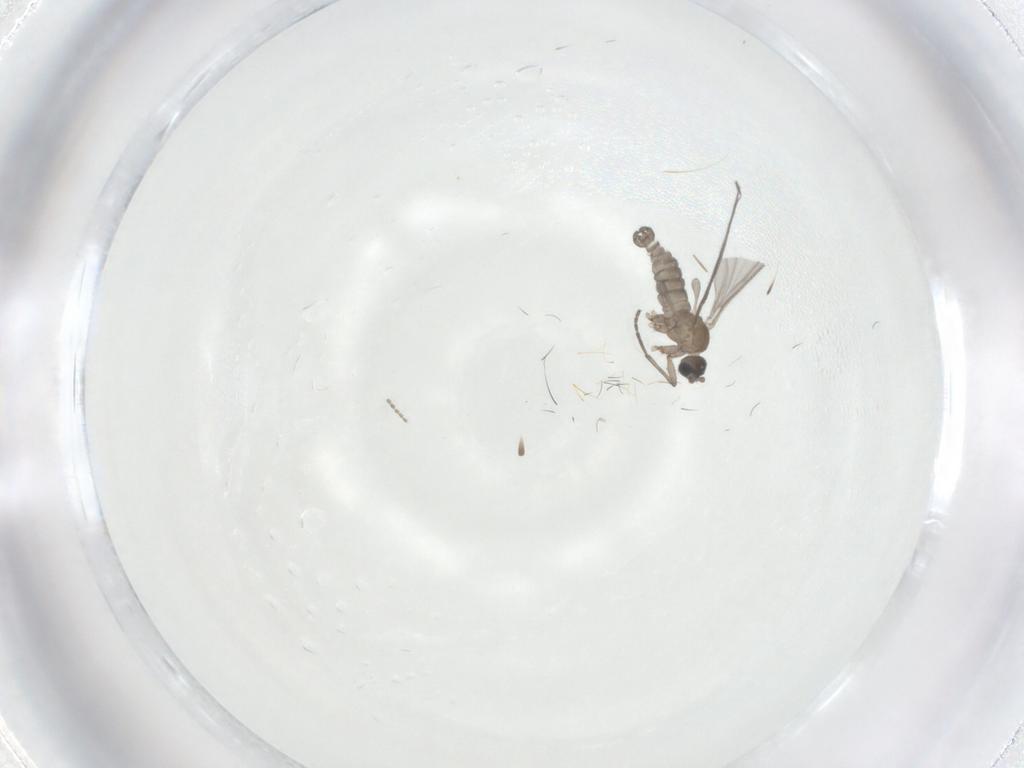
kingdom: Animalia
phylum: Arthropoda
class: Insecta
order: Diptera
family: Sciaridae
